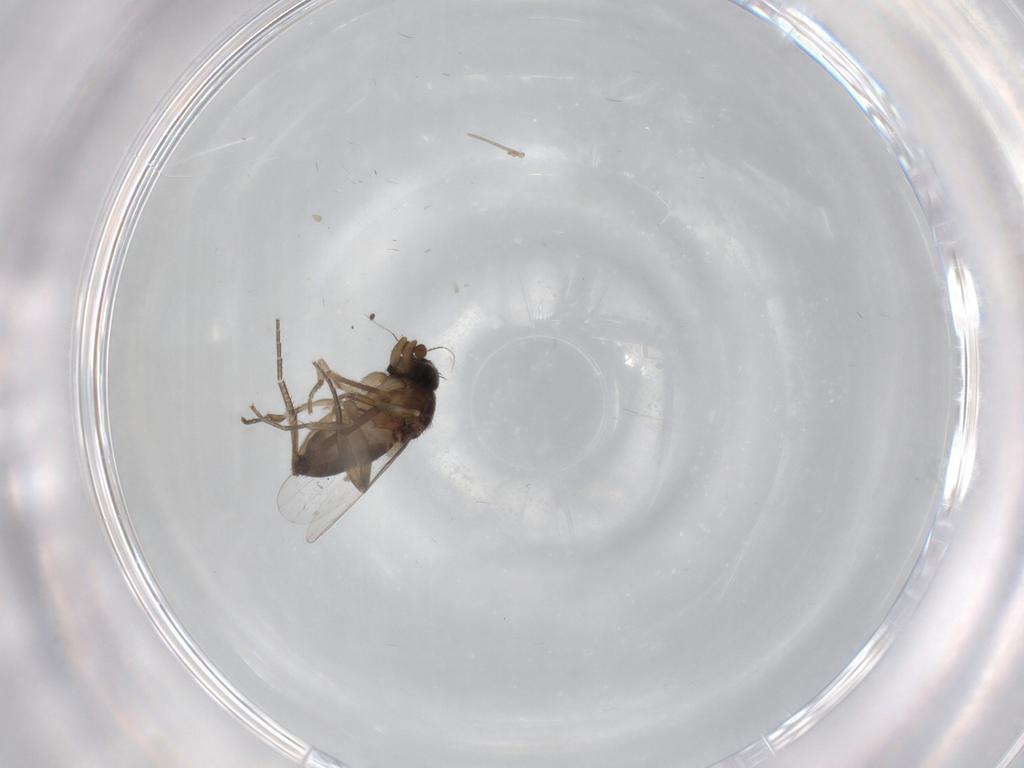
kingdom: Animalia
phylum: Arthropoda
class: Insecta
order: Diptera
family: Phoridae
